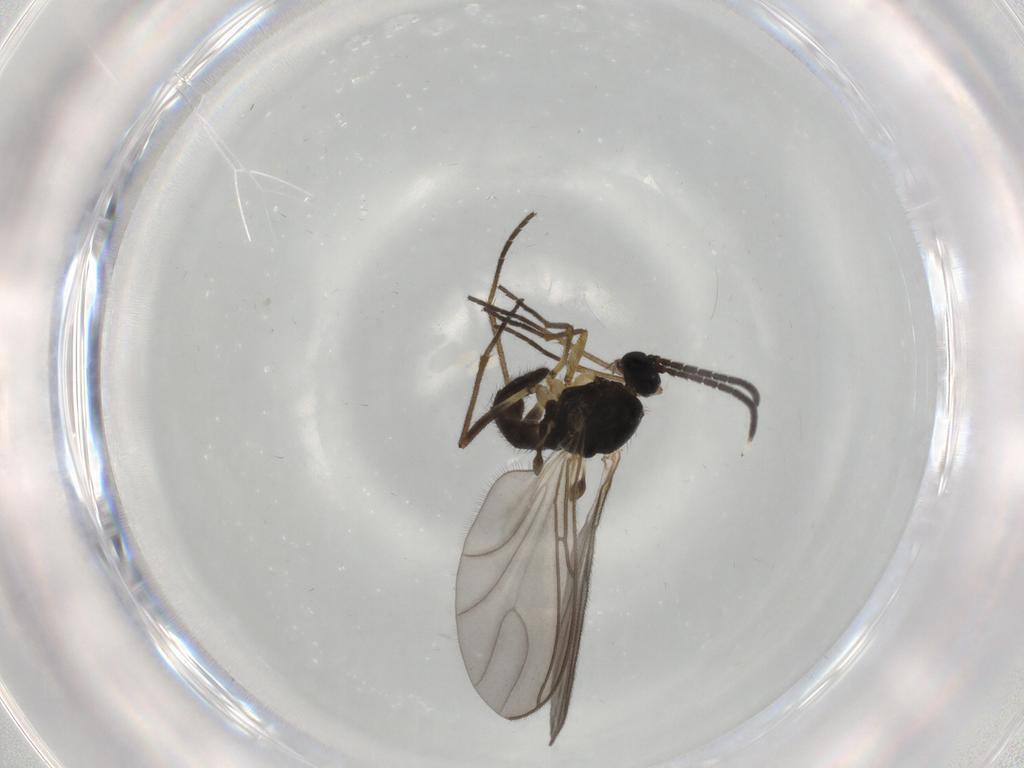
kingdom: Animalia
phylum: Arthropoda
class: Insecta
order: Diptera
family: Sciaridae
